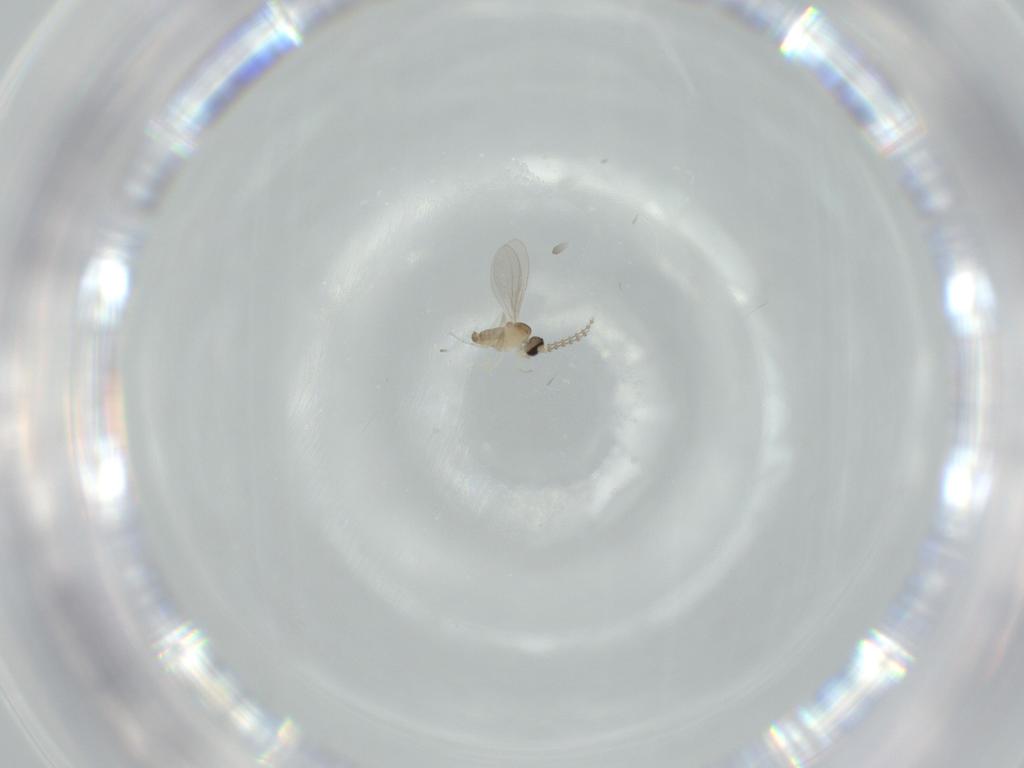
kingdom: Animalia
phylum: Arthropoda
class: Insecta
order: Diptera
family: Cecidomyiidae
